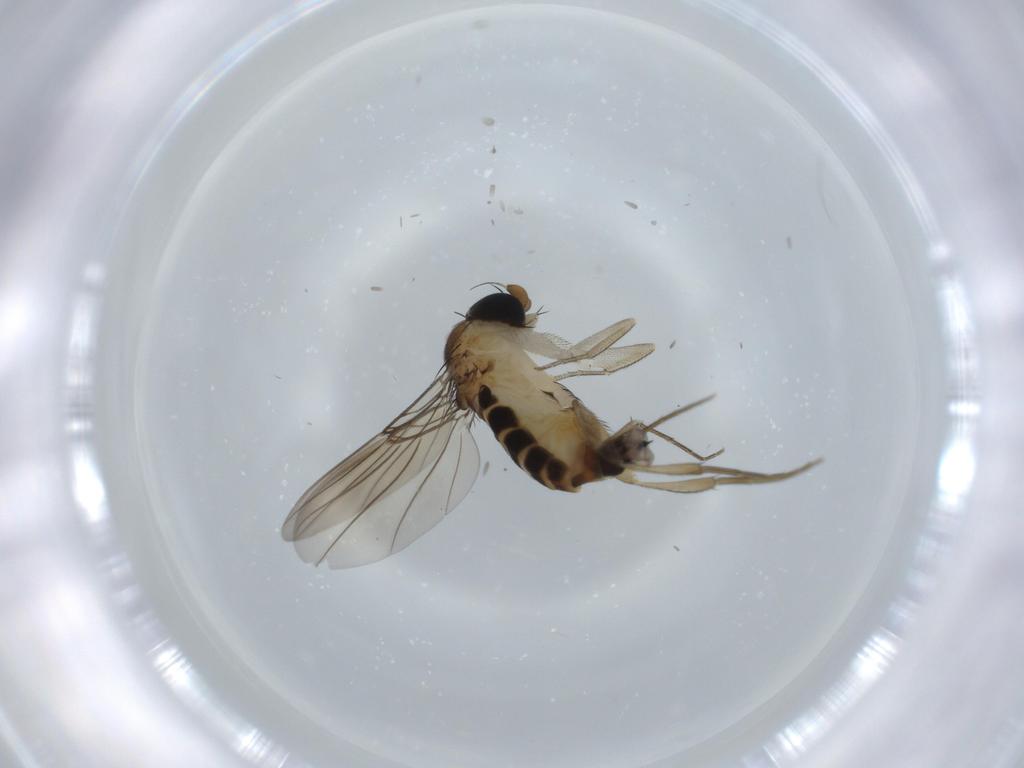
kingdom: Animalia
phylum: Arthropoda
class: Insecta
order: Diptera
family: Phoridae
